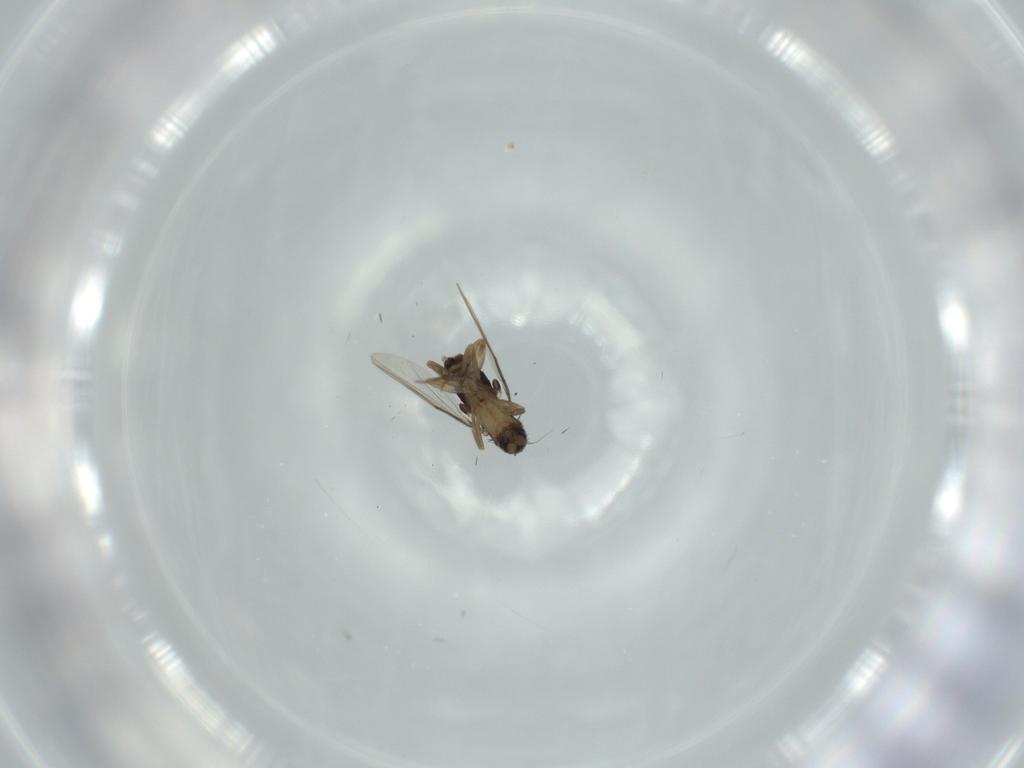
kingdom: Animalia
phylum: Arthropoda
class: Insecta
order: Diptera
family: Phoridae
